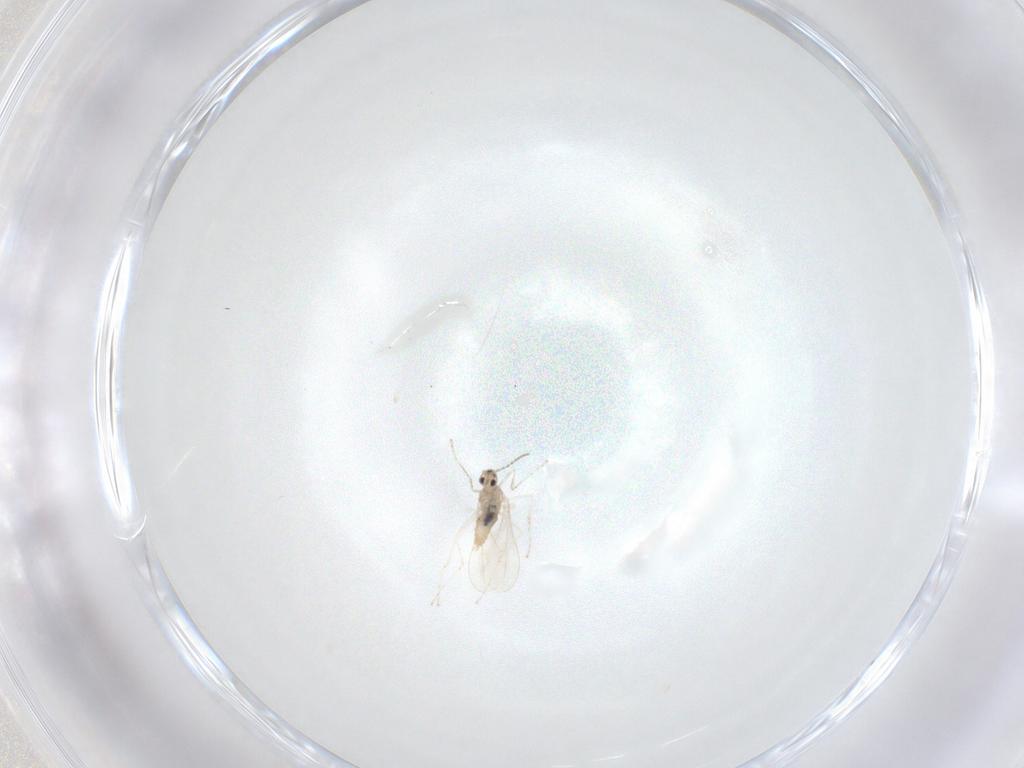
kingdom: Animalia
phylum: Arthropoda
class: Insecta
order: Diptera
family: Cecidomyiidae
